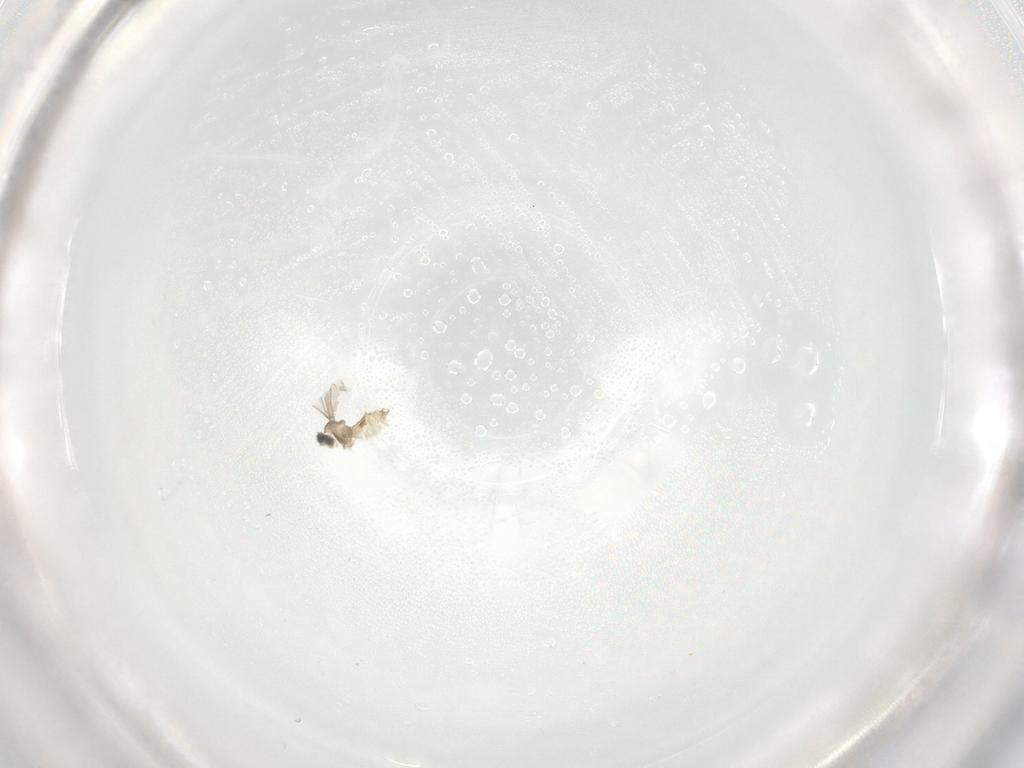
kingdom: Animalia
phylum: Arthropoda
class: Insecta
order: Diptera
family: Cecidomyiidae
